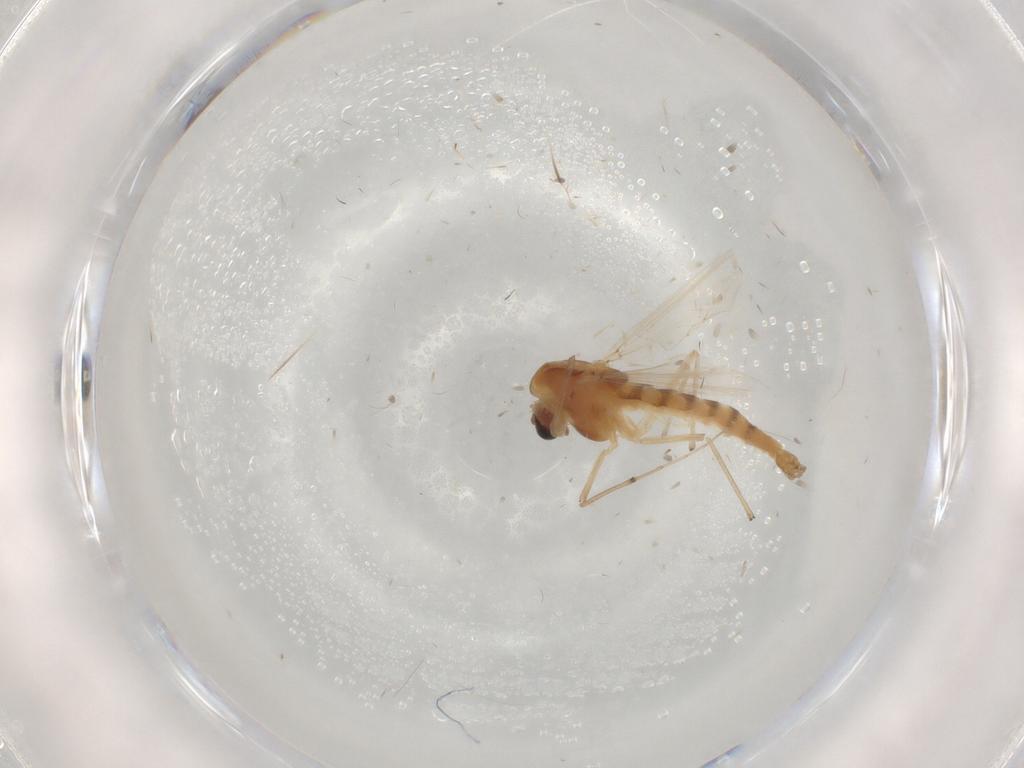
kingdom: Animalia
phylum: Arthropoda
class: Insecta
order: Diptera
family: Chironomidae
